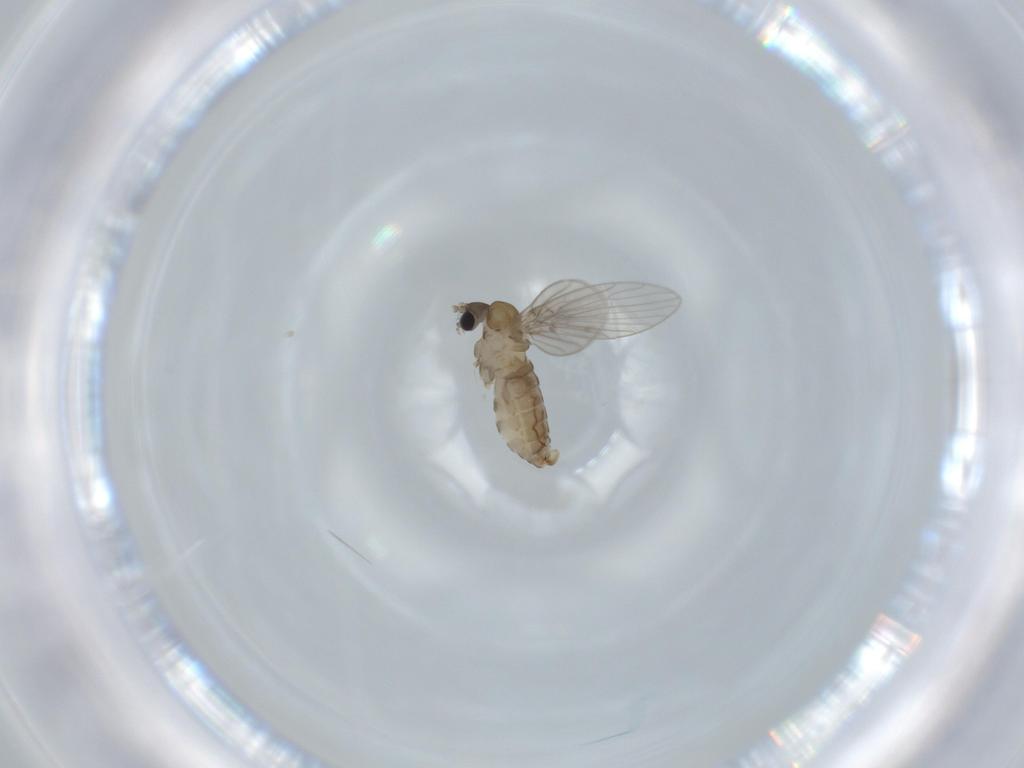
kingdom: Animalia
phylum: Arthropoda
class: Insecta
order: Diptera
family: Psychodidae
